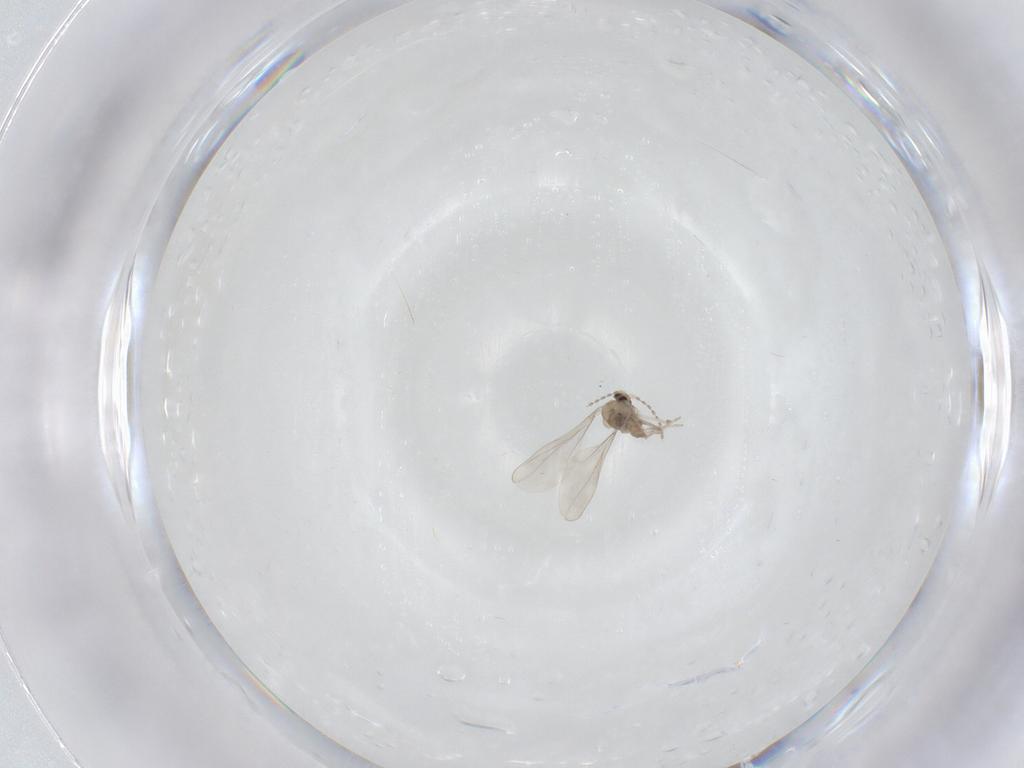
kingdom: Animalia
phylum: Arthropoda
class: Insecta
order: Diptera
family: Cecidomyiidae
